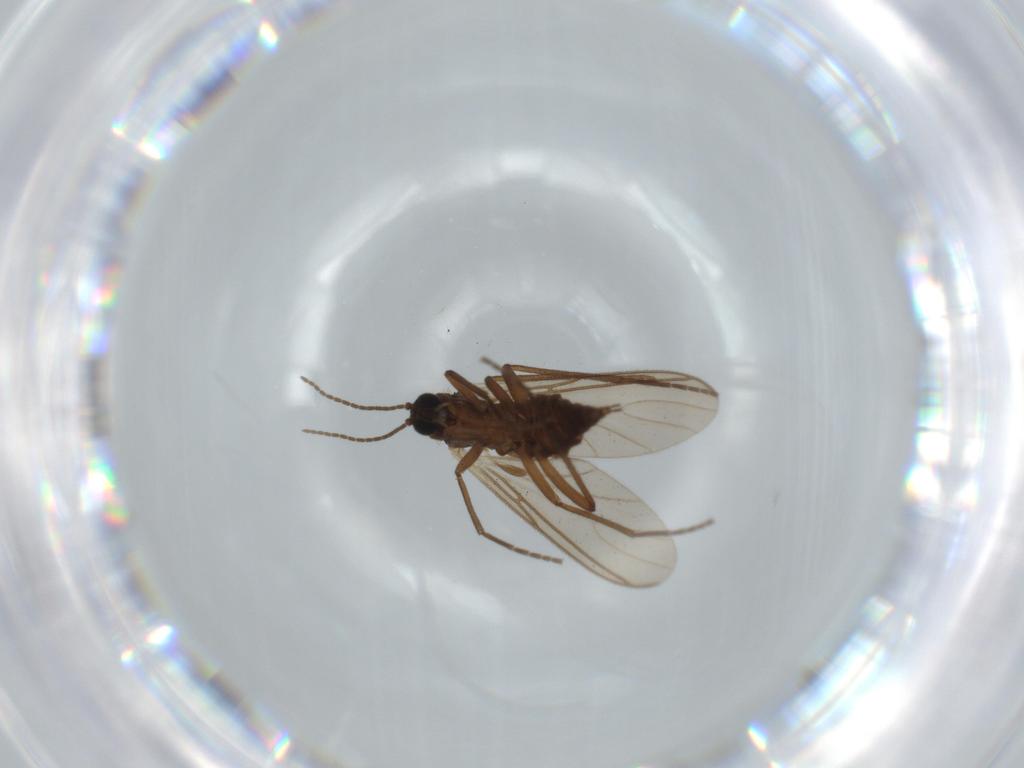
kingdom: Animalia
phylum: Arthropoda
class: Insecta
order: Diptera
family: Sciaridae
